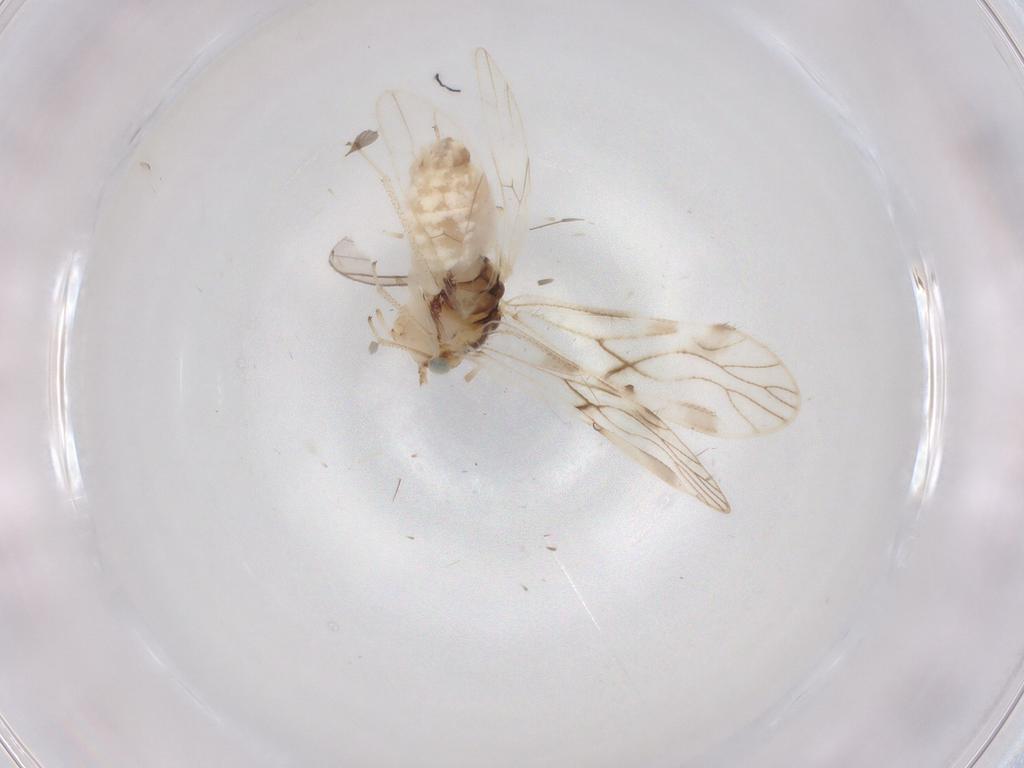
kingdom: Animalia
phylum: Arthropoda
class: Insecta
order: Psocodea
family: Caeciliusidae
